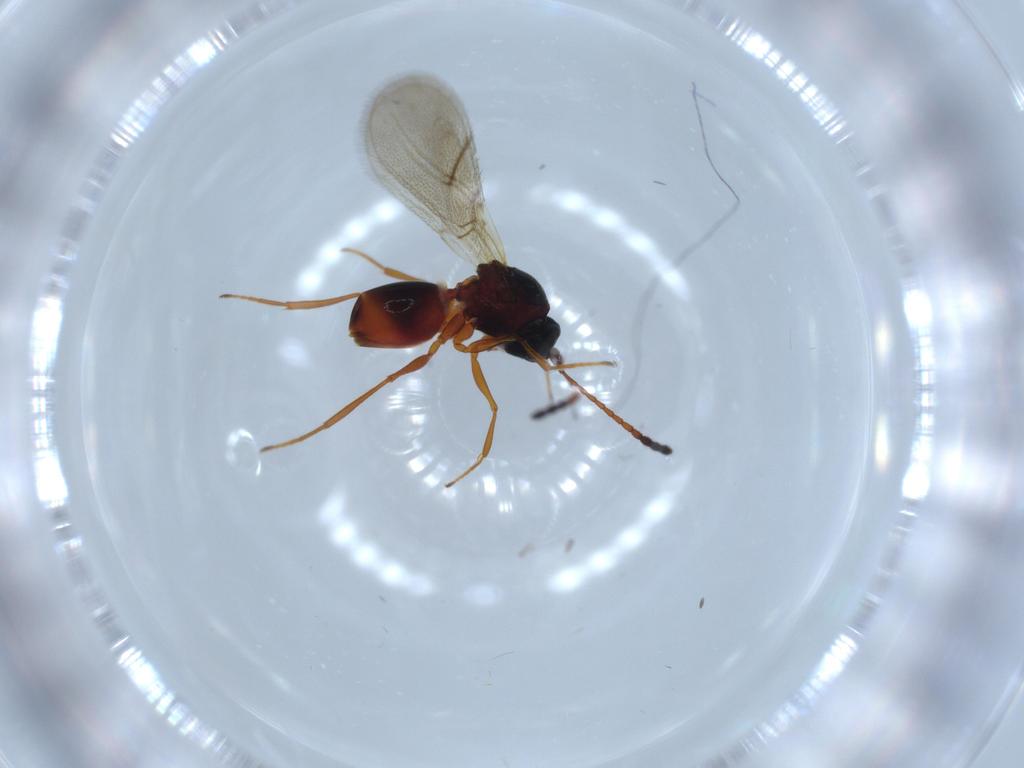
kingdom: Animalia
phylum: Arthropoda
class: Insecta
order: Hymenoptera
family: Figitidae
